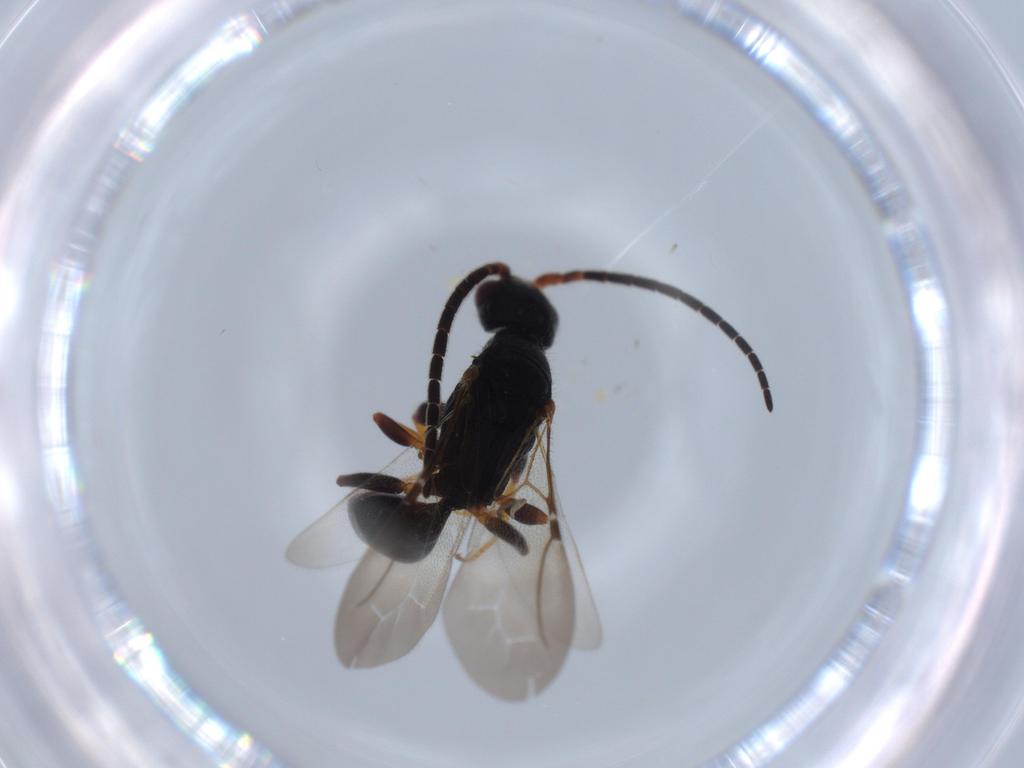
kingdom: Animalia
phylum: Arthropoda
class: Insecta
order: Hymenoptera
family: Bethylidae
